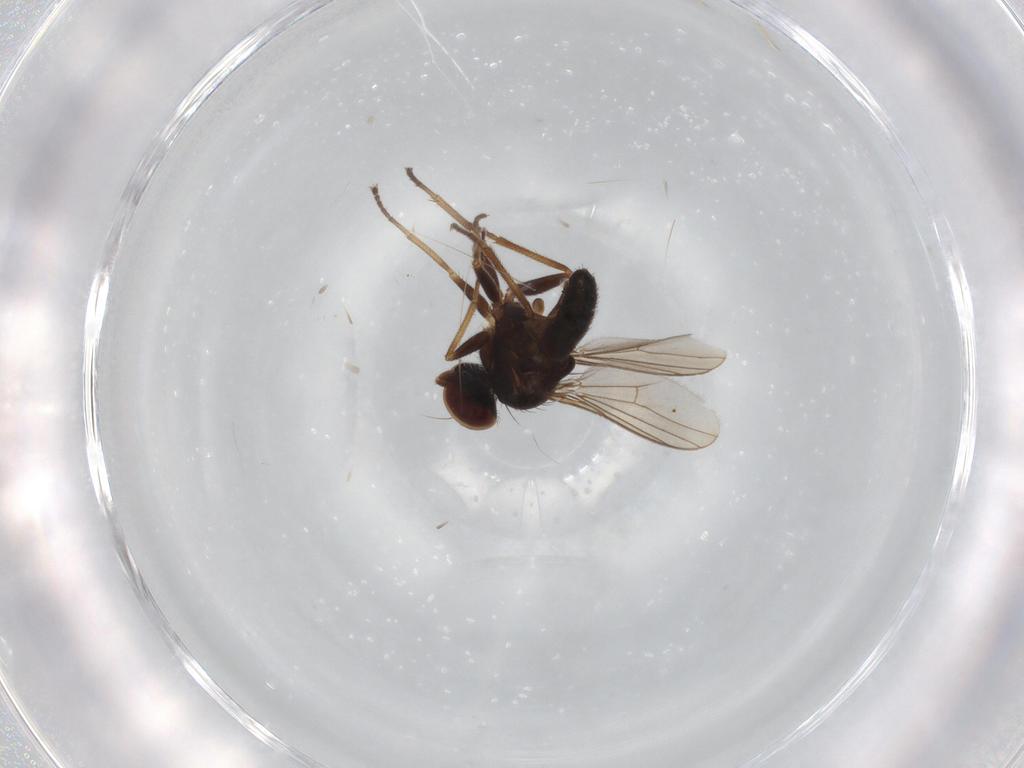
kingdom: Animalia
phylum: Arthropoda
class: Insecta
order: Diptera
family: Dolichopodidae
